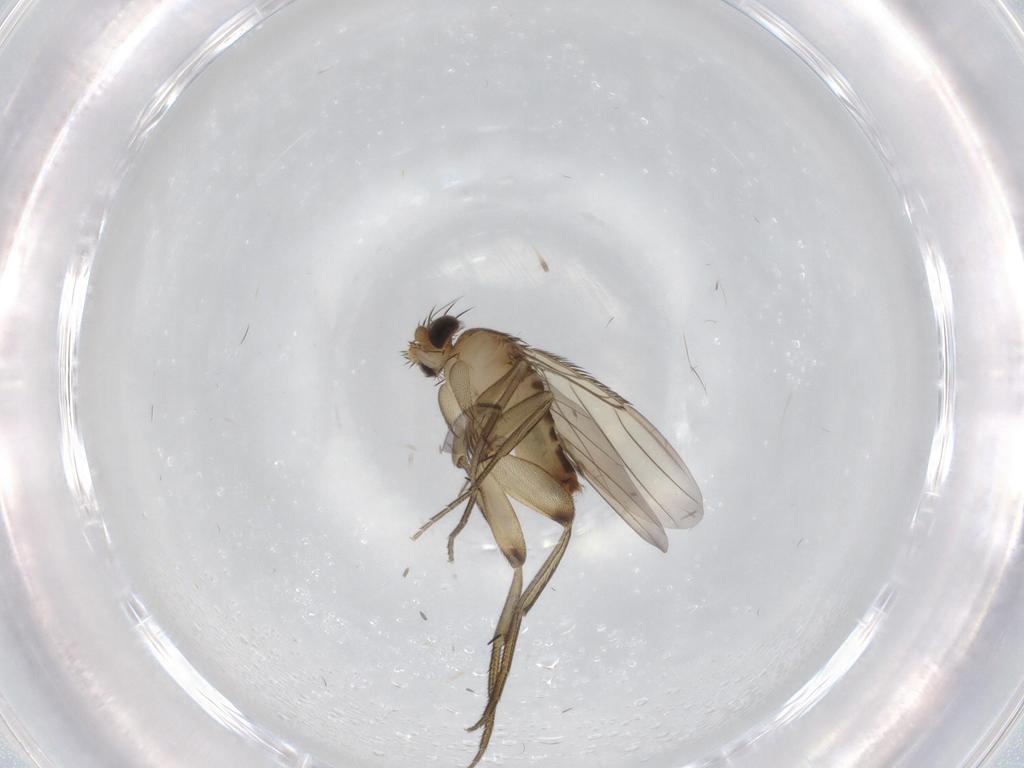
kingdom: Animalia
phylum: Arthropoda
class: Insecta
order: Diptera
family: Phoridae
